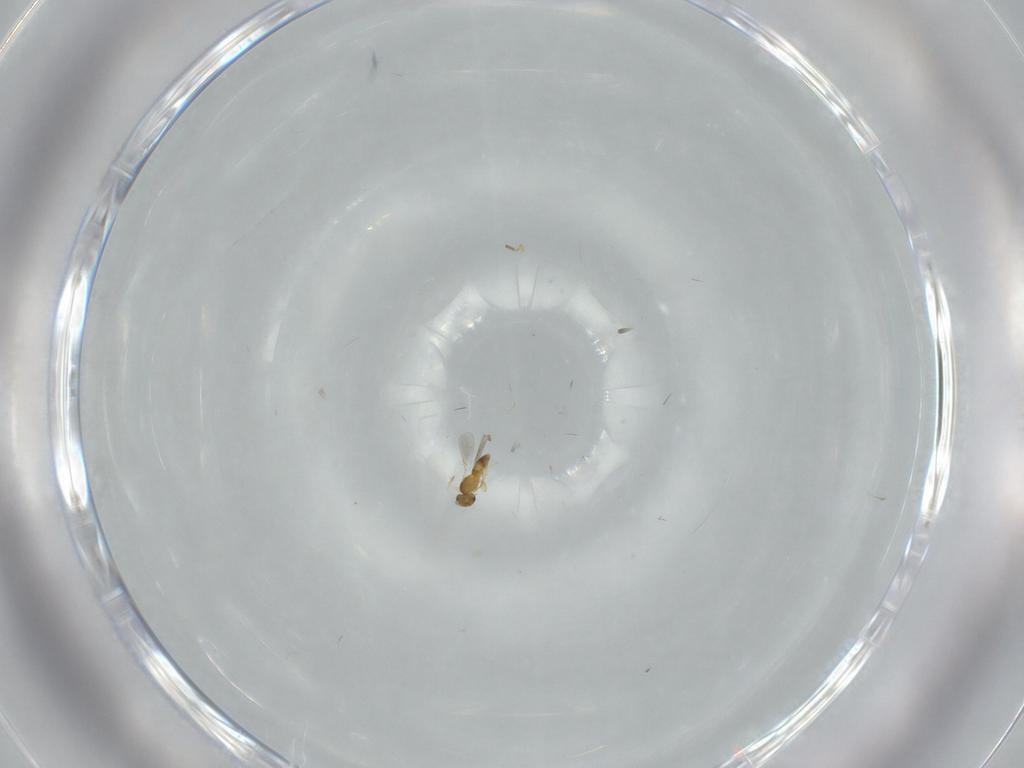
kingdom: Animalia
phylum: Arthropoda
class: Insecta
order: Hymenoptera
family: Platygastridae
